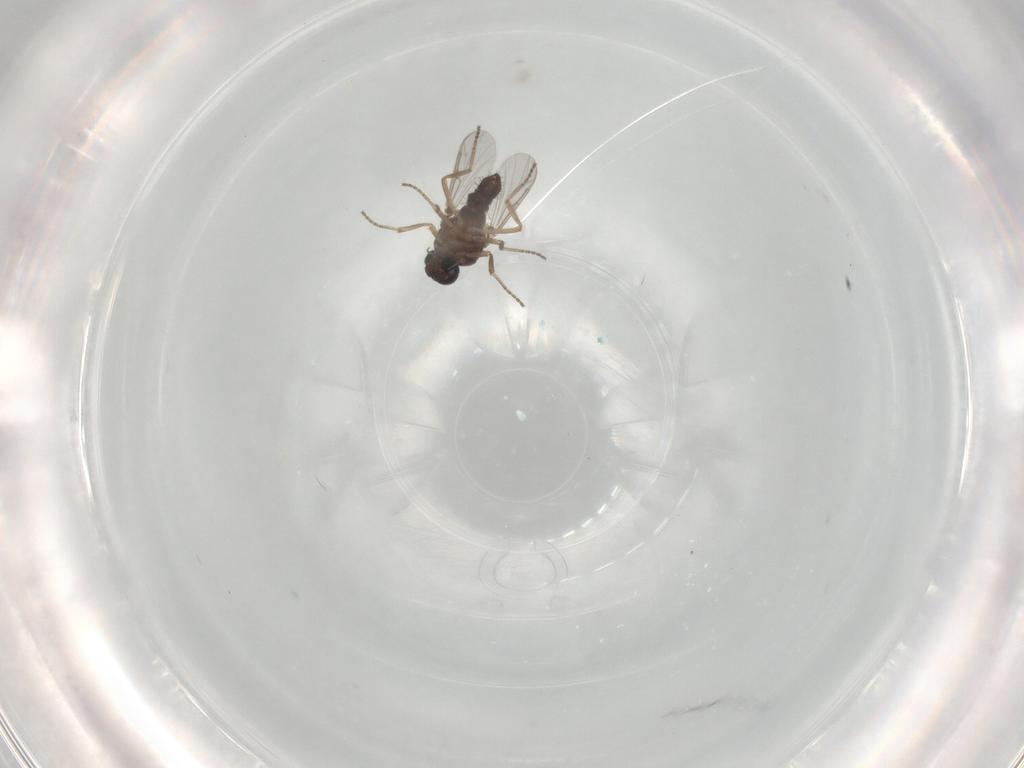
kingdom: Animalia
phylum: Arthropoda
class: Insecta
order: Diptera
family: Ceratopogonidae
